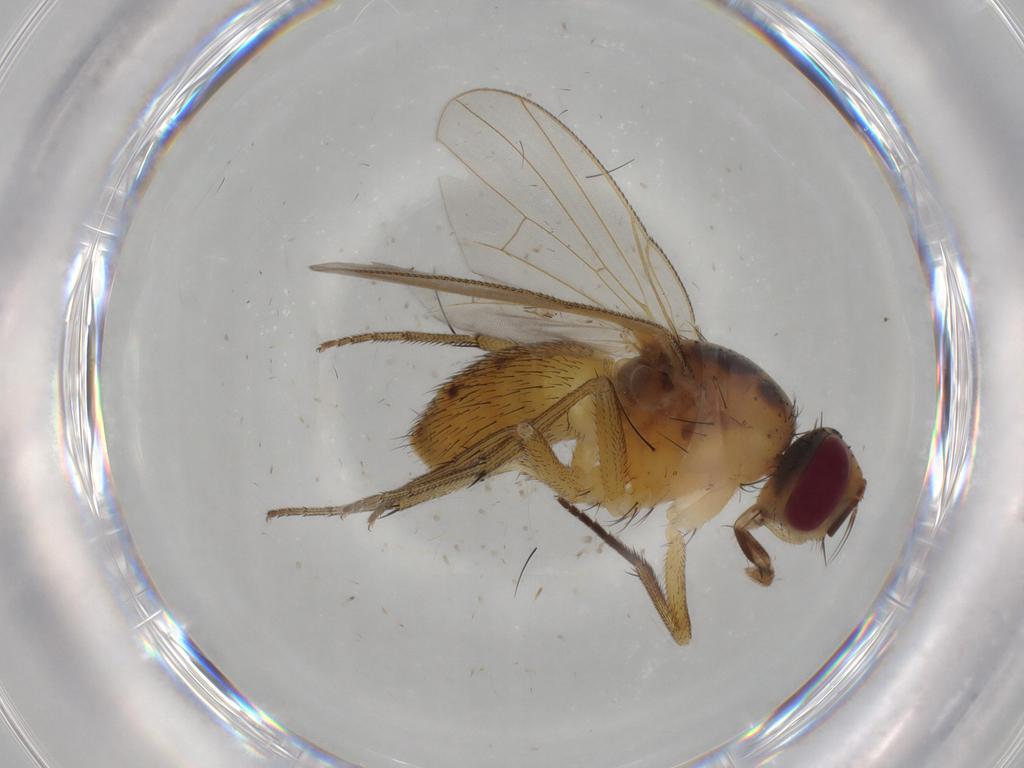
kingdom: Animalia
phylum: Arthropoda
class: Insecta
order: Diptera
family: Muscidae
